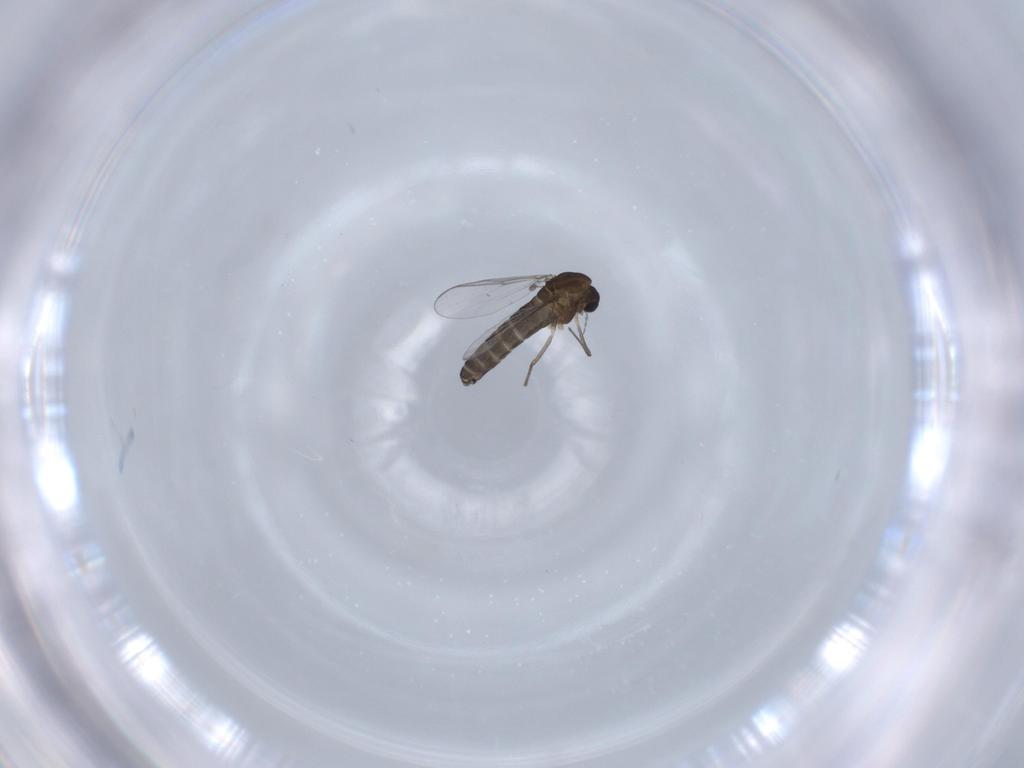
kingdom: Animalia
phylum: Arthropoda
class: Insecta
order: Diptera
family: Chironomidae
